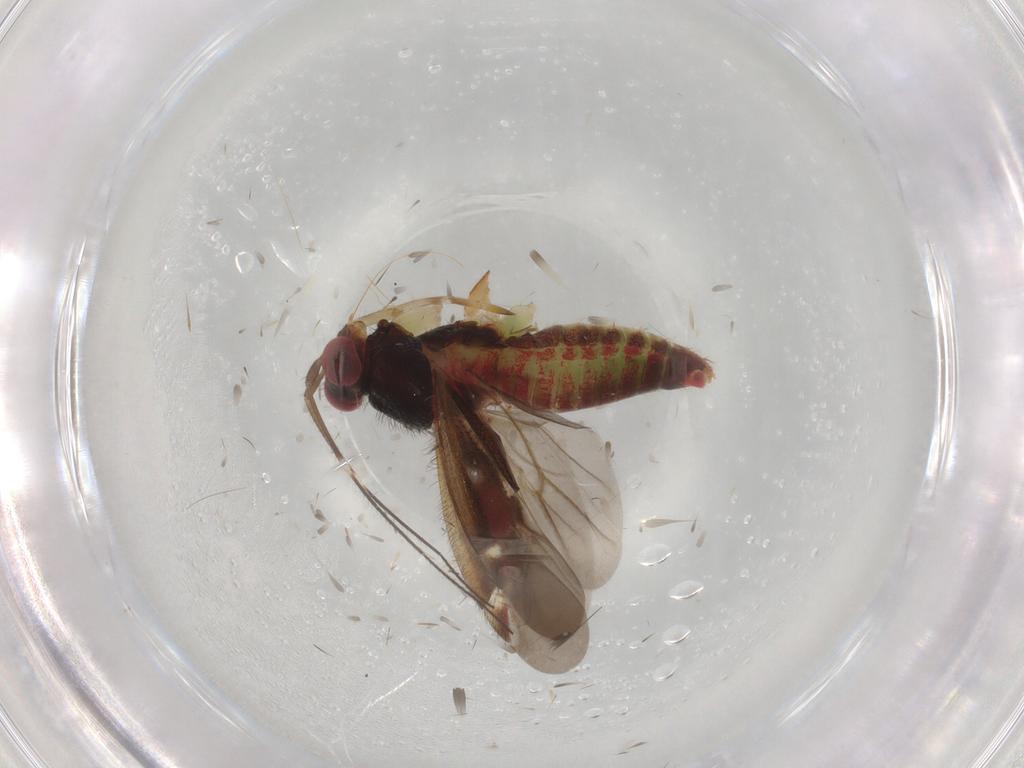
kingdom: Animalia
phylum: Arthropoda
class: Insecta
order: Hemiptera
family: Miridae
